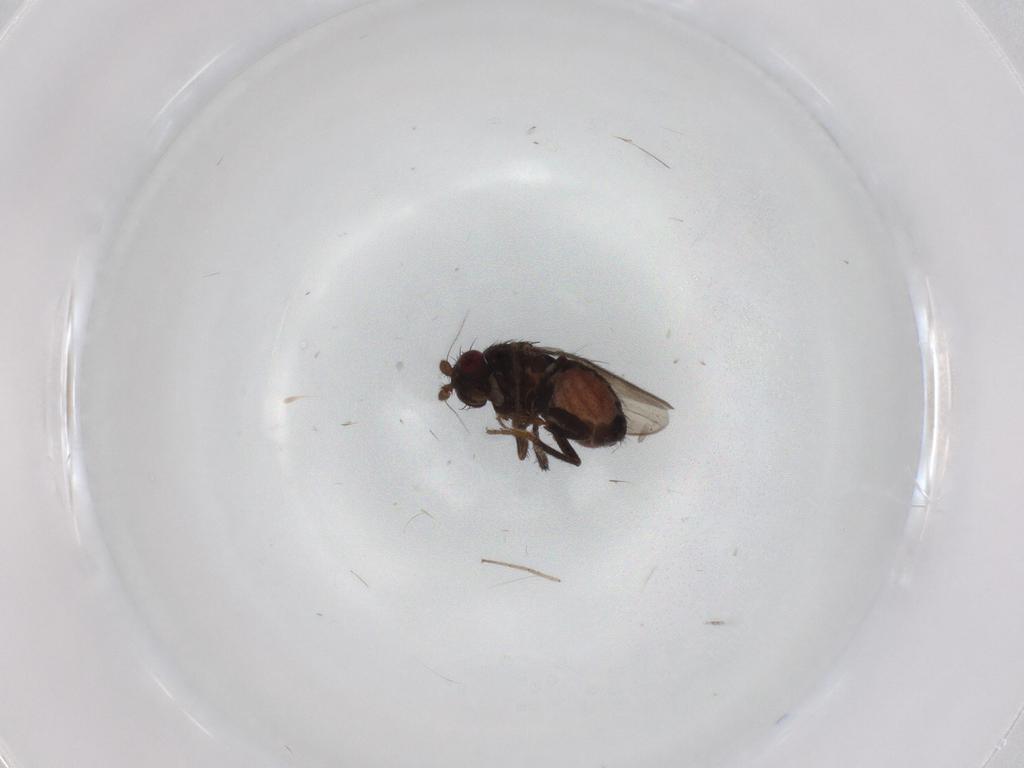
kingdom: Animalia
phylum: Arthropoda
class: Insecta
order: Diptera
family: Sphaeroceridae
